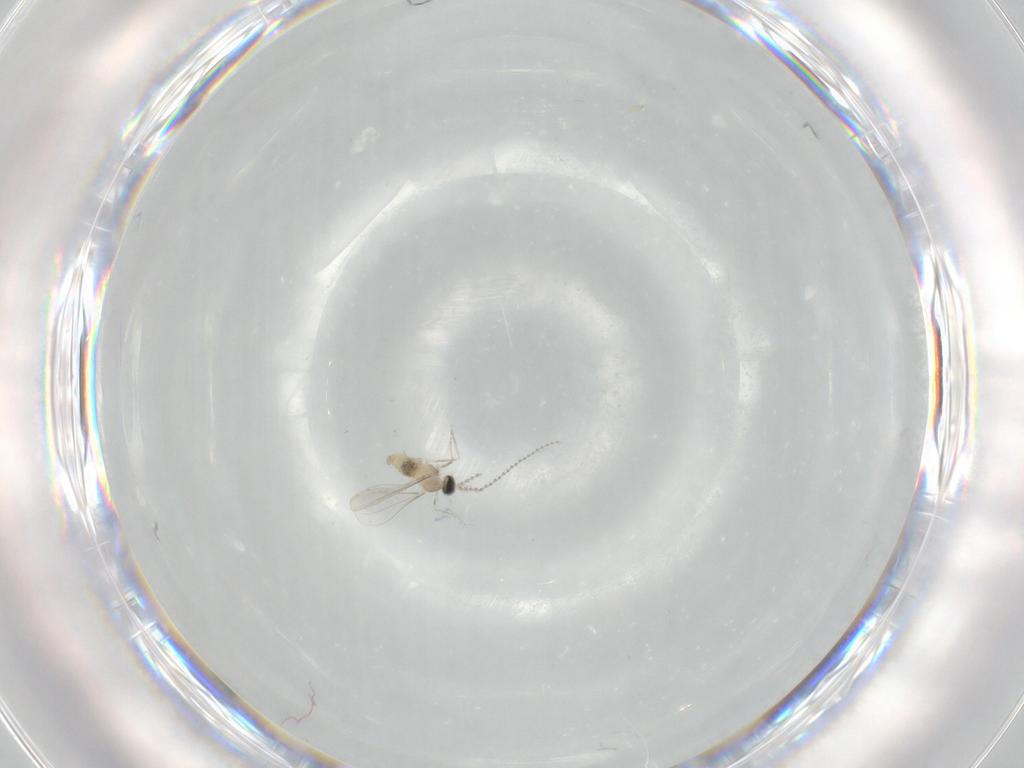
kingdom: Animalia
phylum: Arthropoda
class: Insecta
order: Diptera
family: Cecidomyiidae
